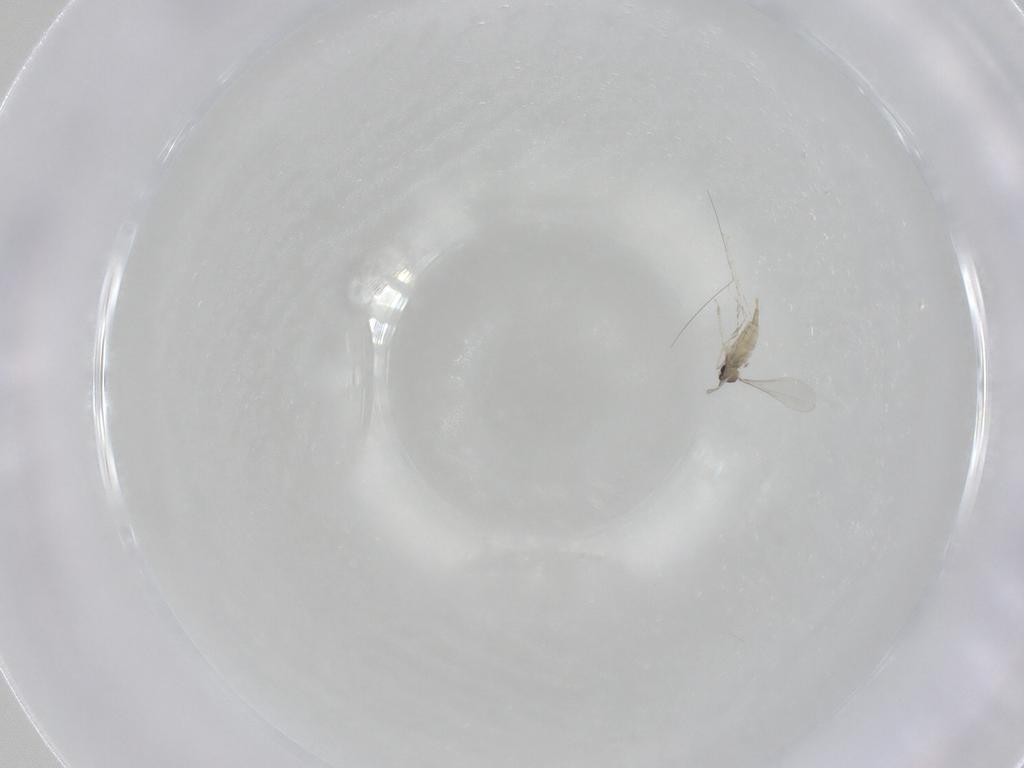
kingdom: Animalia
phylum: Arthropoda
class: Insecta
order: Diptera
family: Cecidomyiidae
